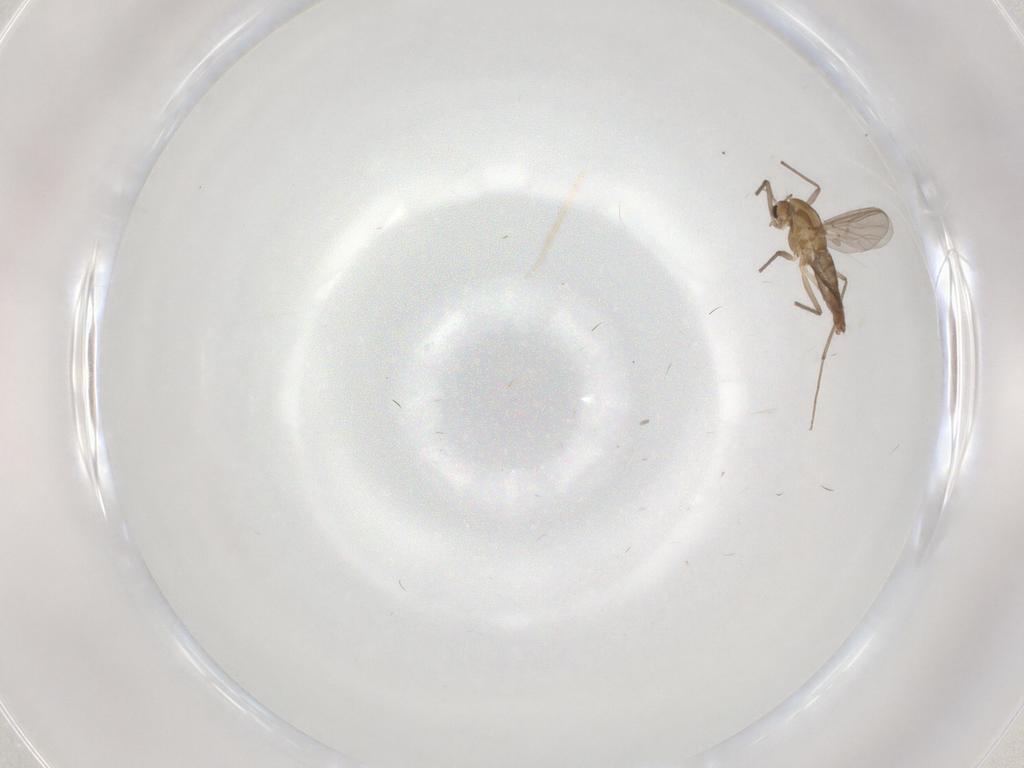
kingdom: Animalia
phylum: Arthropoda
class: Insecta
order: Diptera
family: Chironomidae
